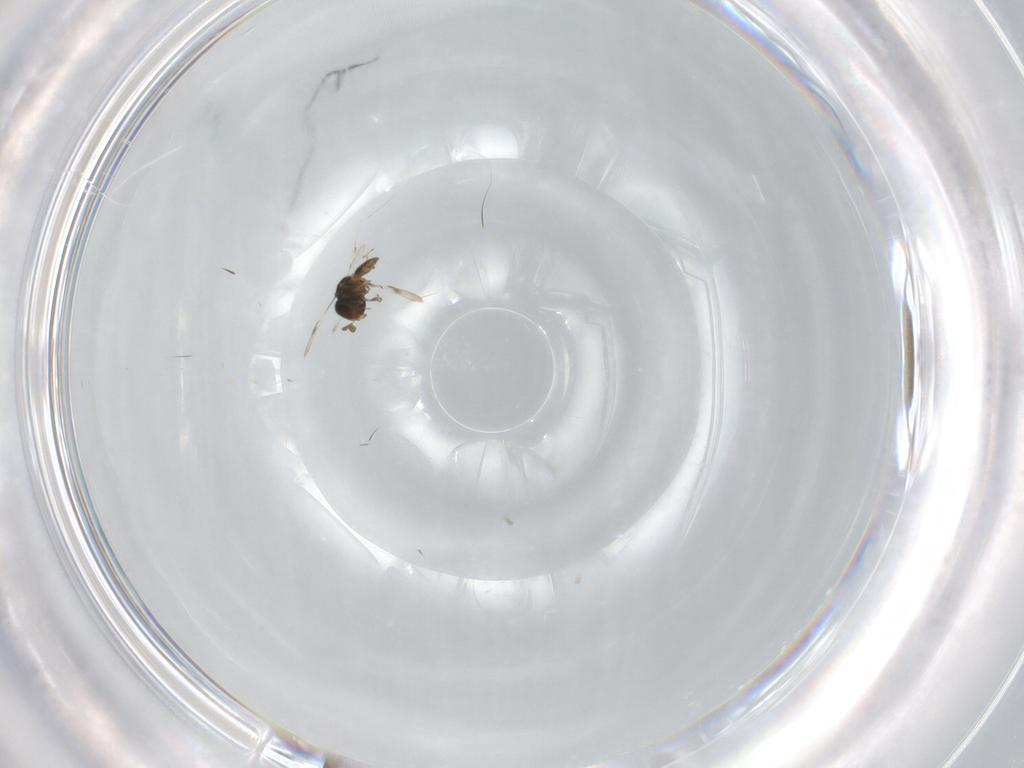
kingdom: Animalia
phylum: Arthropoda
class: Insecta
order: Hymenoptera
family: Scelionidae
